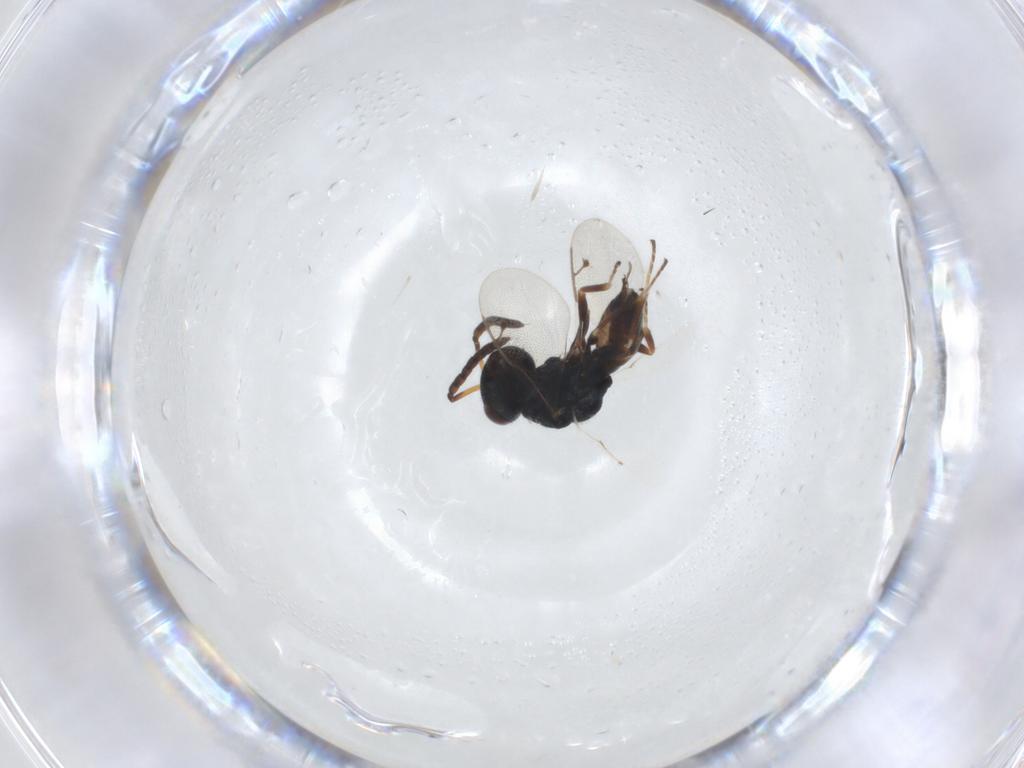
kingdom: Animalia
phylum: Arthropoda
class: Insecta
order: Hymenoptera
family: Pteromalidae
